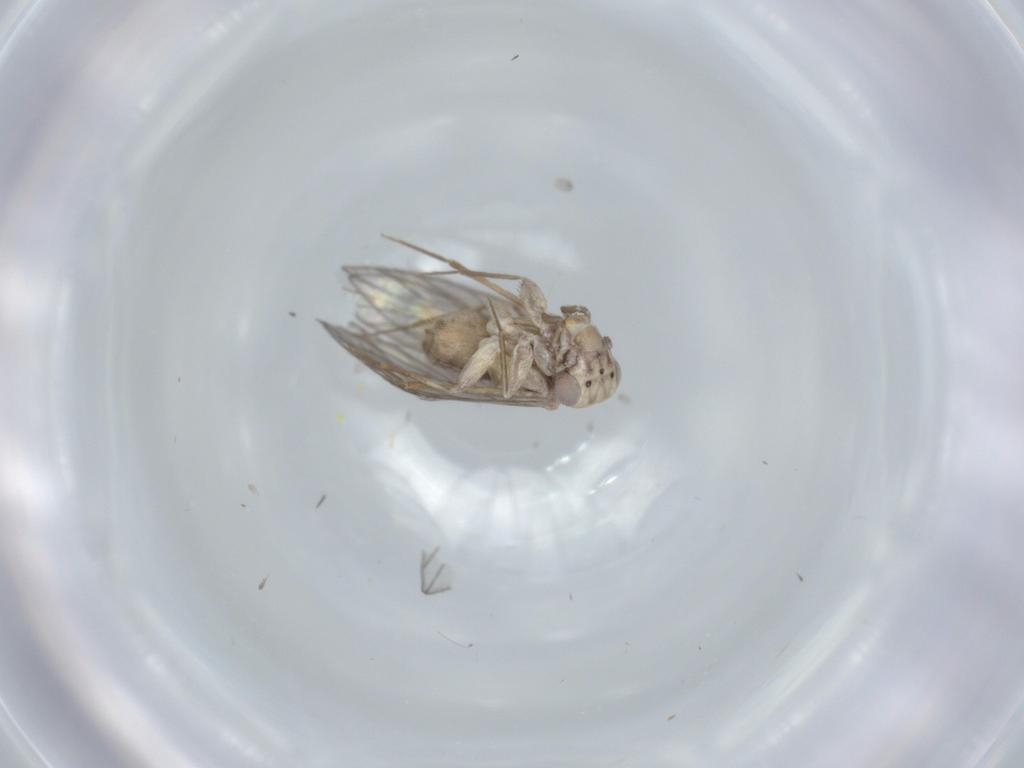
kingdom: Animalia
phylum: Arthropoda
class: Insecta
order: Psocodea
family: Lepidopsocidae
